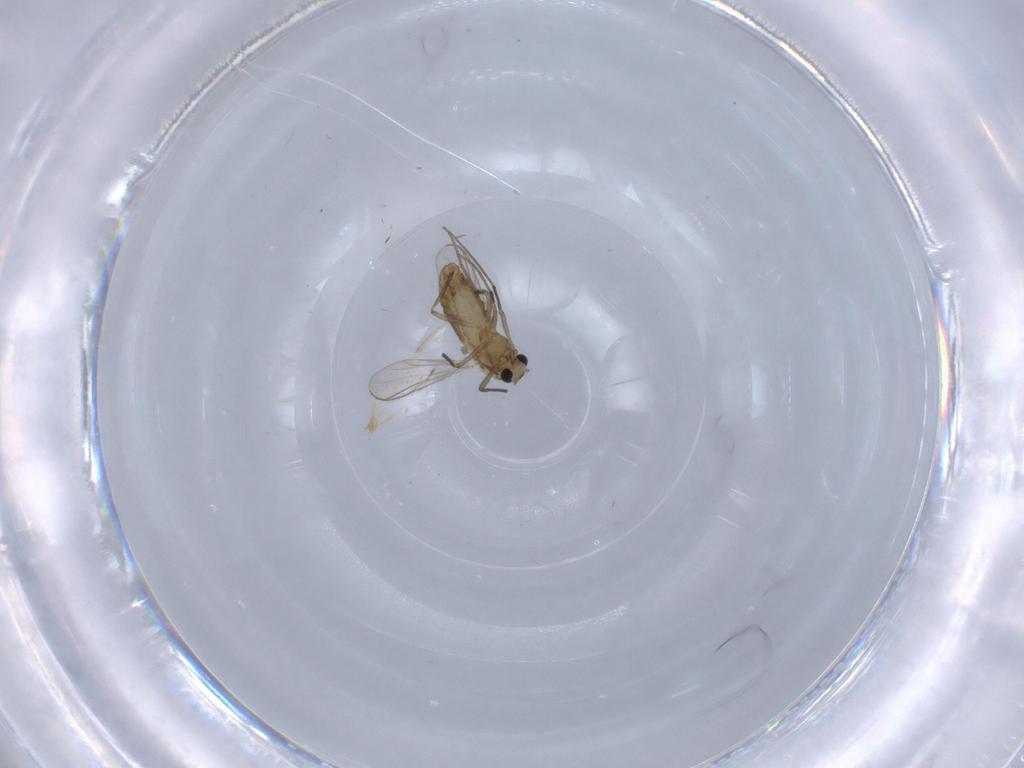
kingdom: Animalia
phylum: Arthropoda
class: Insecta
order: Diptera
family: Chironomidae
